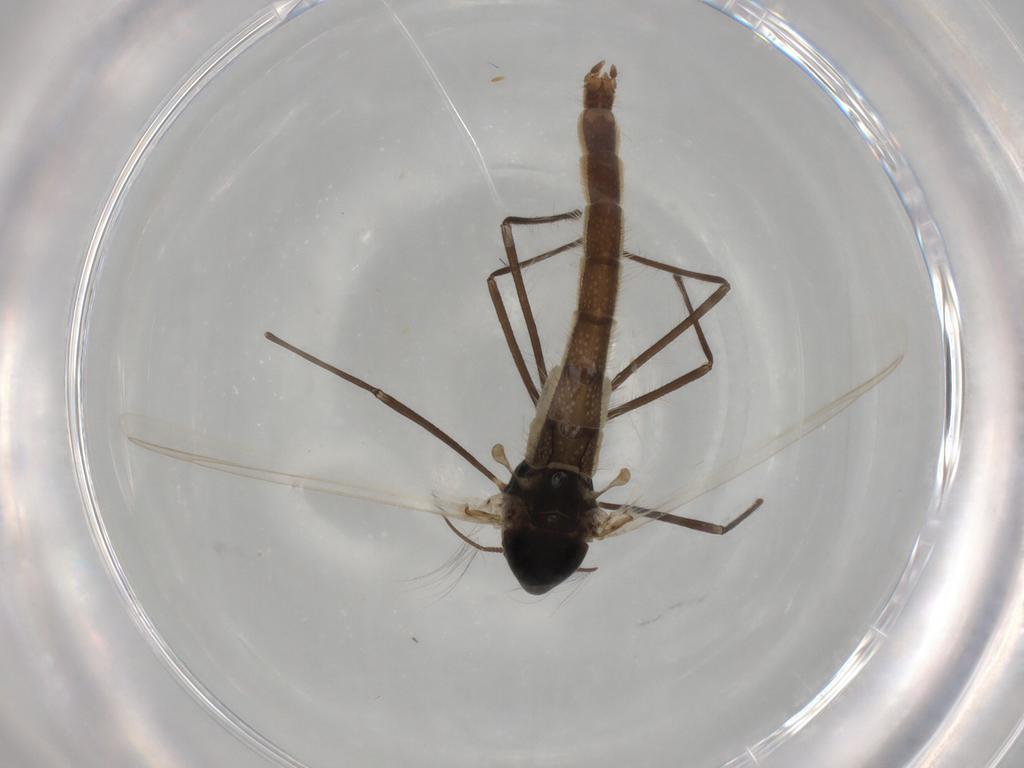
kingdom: Animalia
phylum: Arthropoda
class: Insecta
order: Diptera
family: Chironomidae
